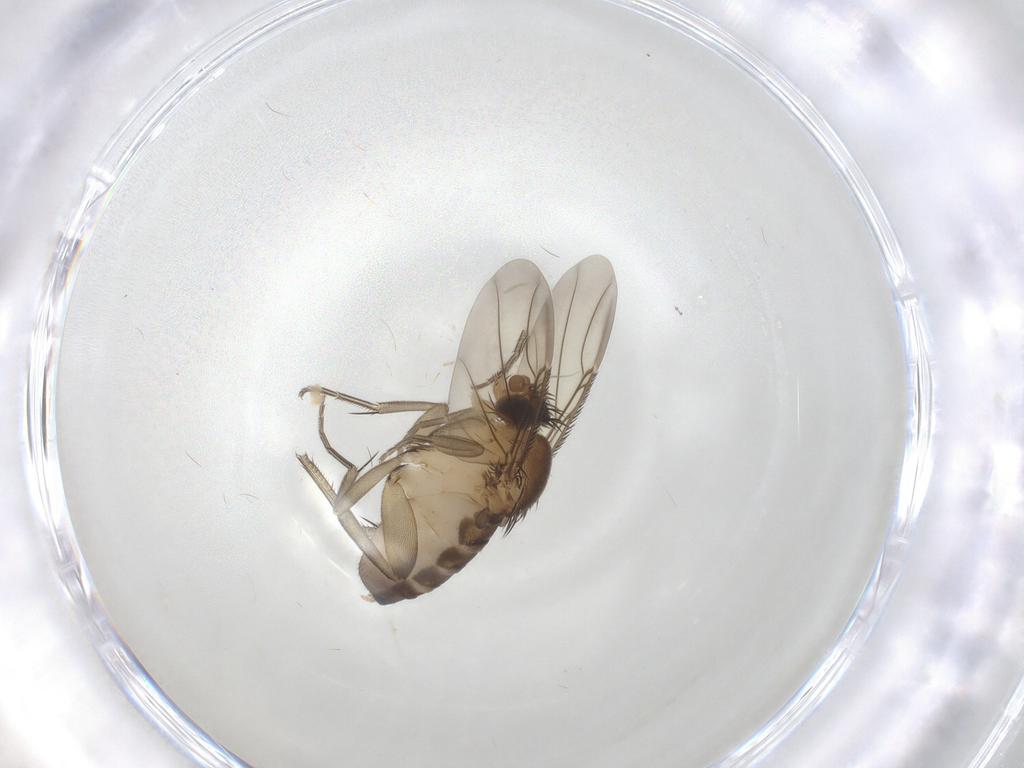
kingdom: Animalia
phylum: Arthropoda
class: Insecta
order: Diptera
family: Phoridae
